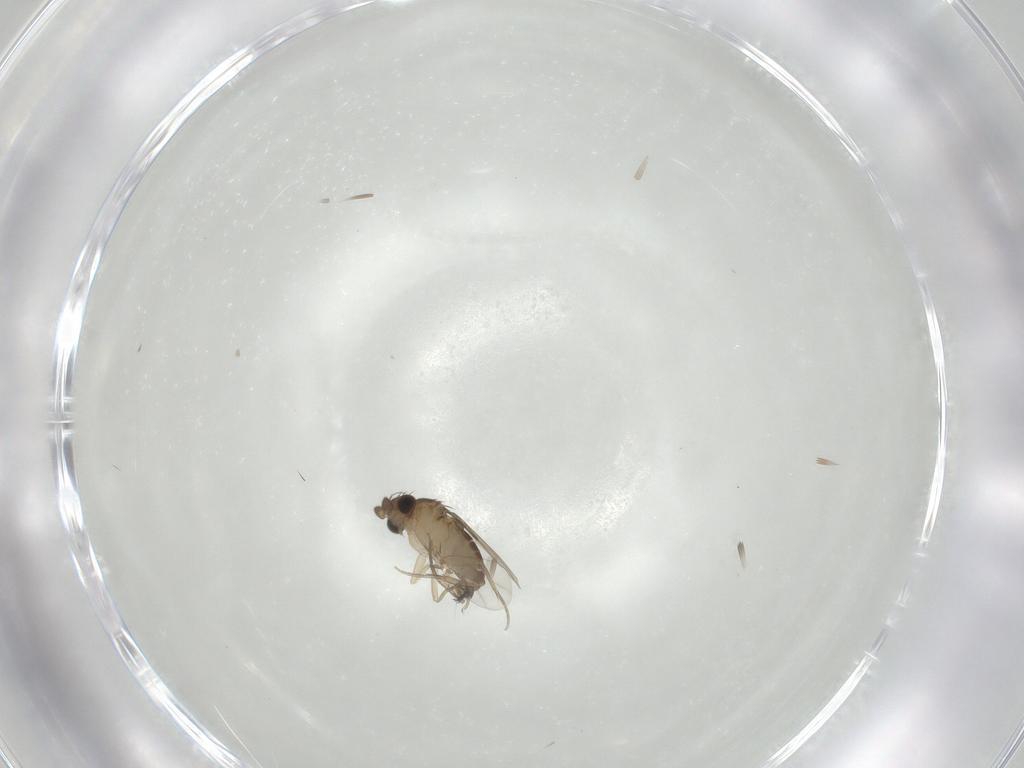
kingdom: Animalia
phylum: Arthropoda
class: Insecta
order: Diptera
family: Phoridae
